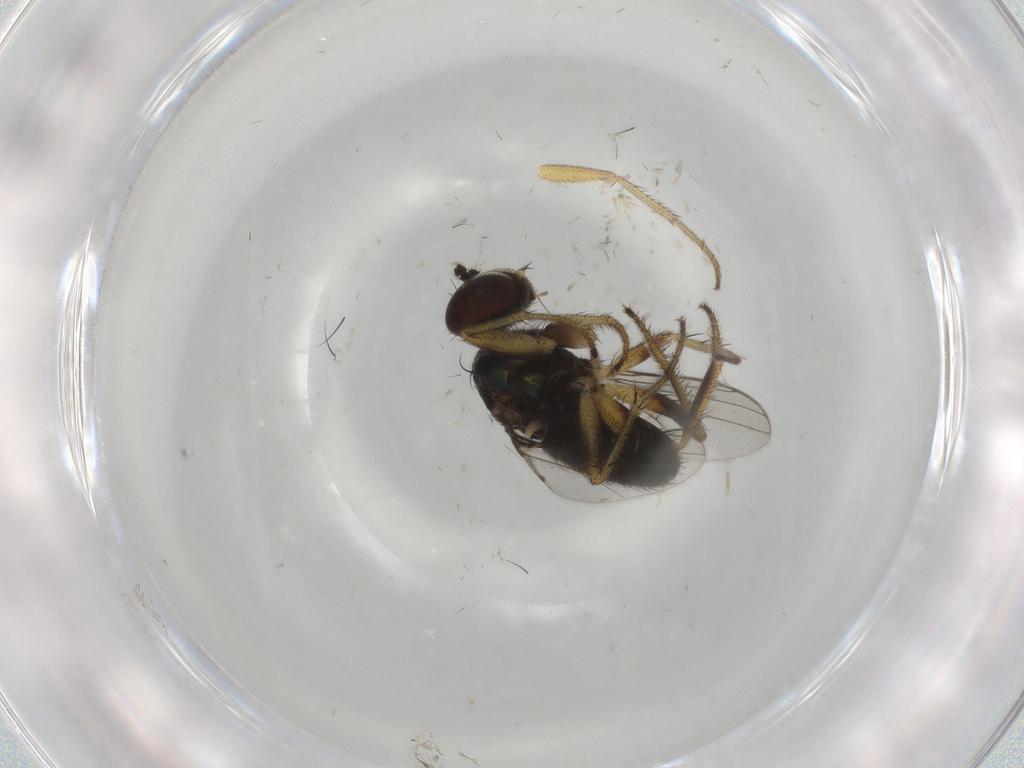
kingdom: Animalia
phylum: Arthropoda
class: Insecta
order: Diptera
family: Dolichopodidae
